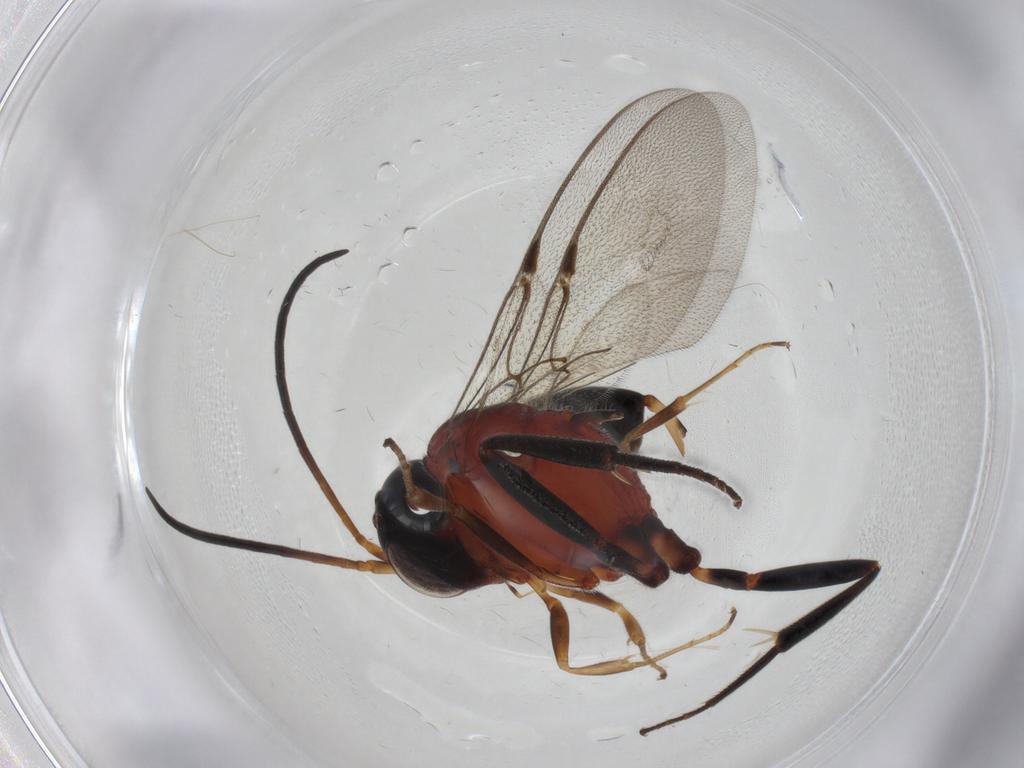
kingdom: Animalia
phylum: Arthropoda
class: Insecta
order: Hymenoptera
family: Evaniidae
